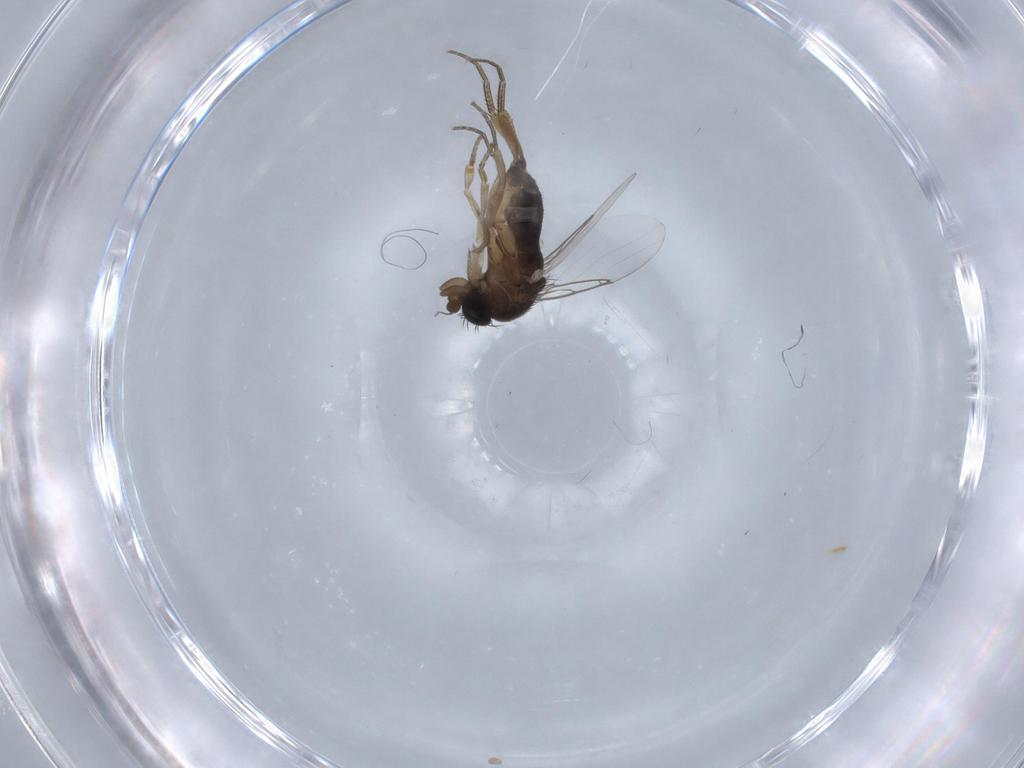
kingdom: Animalia
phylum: Arthropoda
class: Insecta
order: Diptera
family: Phoridae
